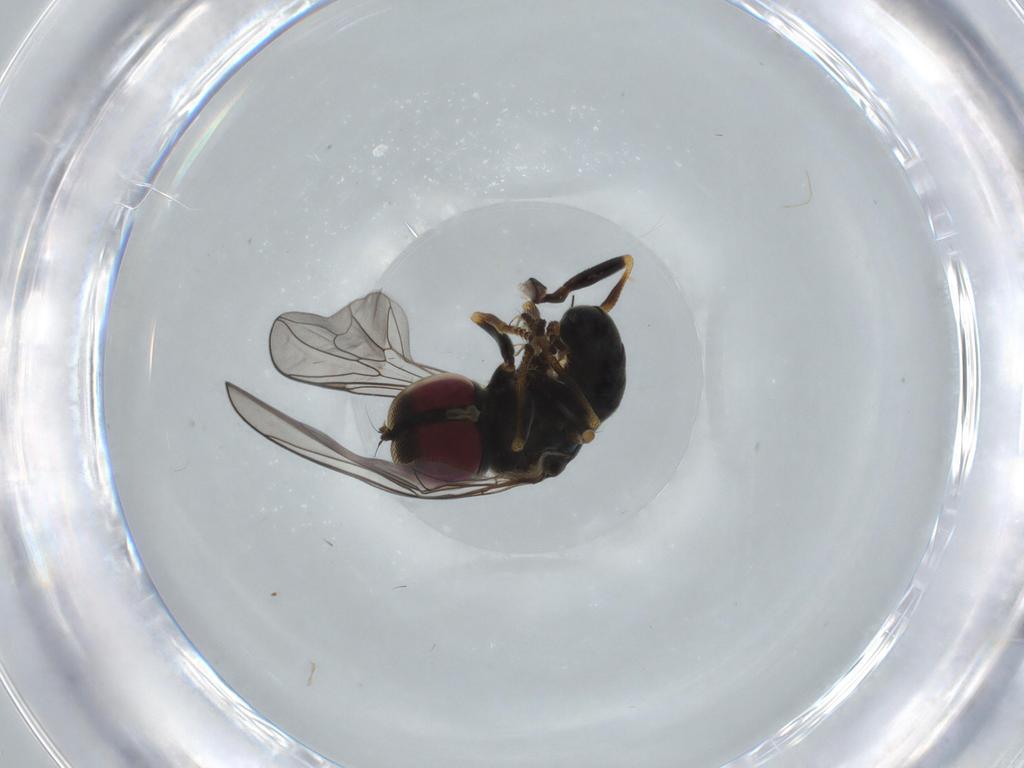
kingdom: Animalia
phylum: Arthropoda
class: Insecta
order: Diptera
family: Pipunculidae
